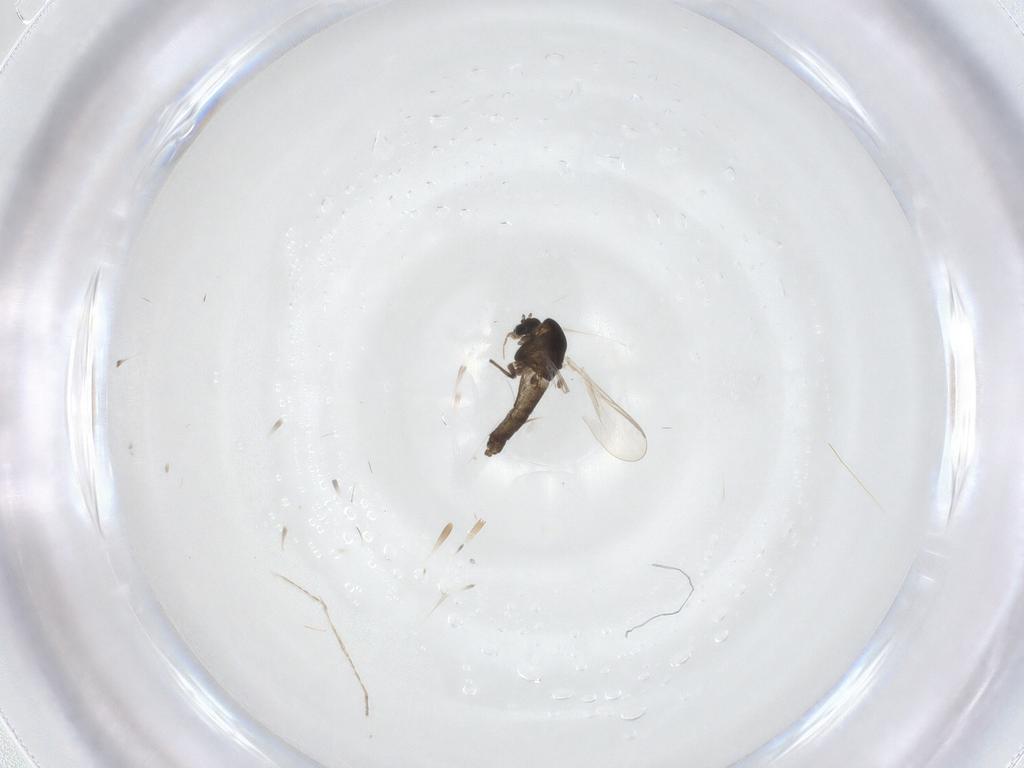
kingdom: Animalia
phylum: Arthropoda
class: Insecta
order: Diptera
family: Chironomidae
